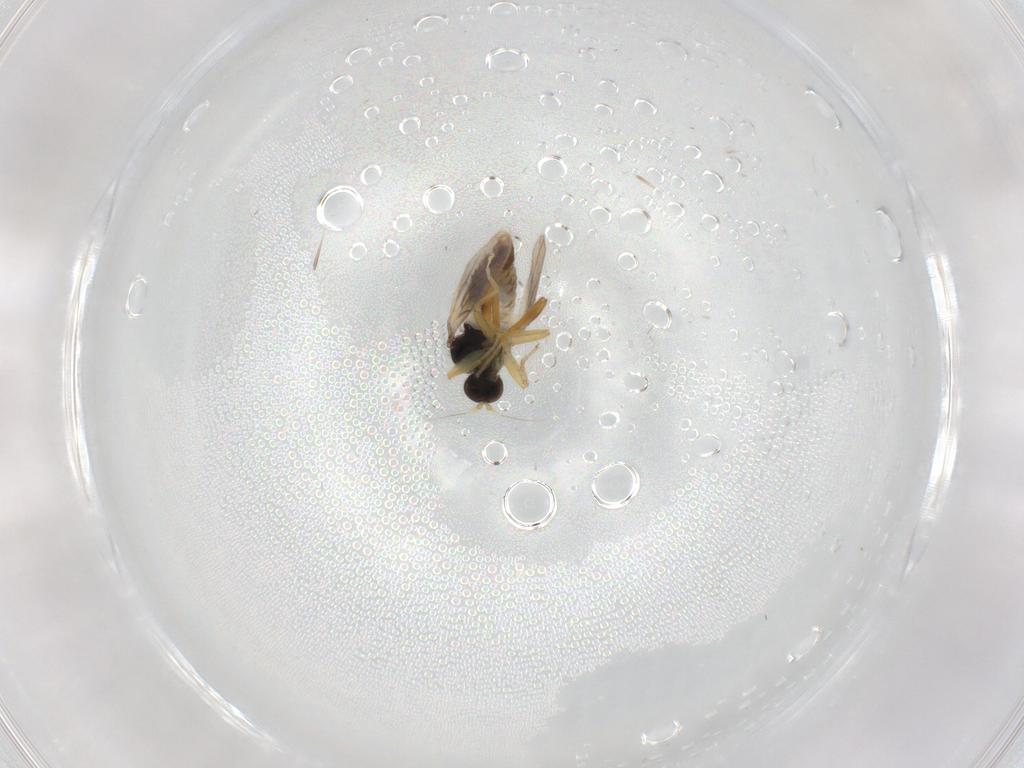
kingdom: Animalia
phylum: Arthropoda
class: Insecta
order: Diptera
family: Hybotidae
